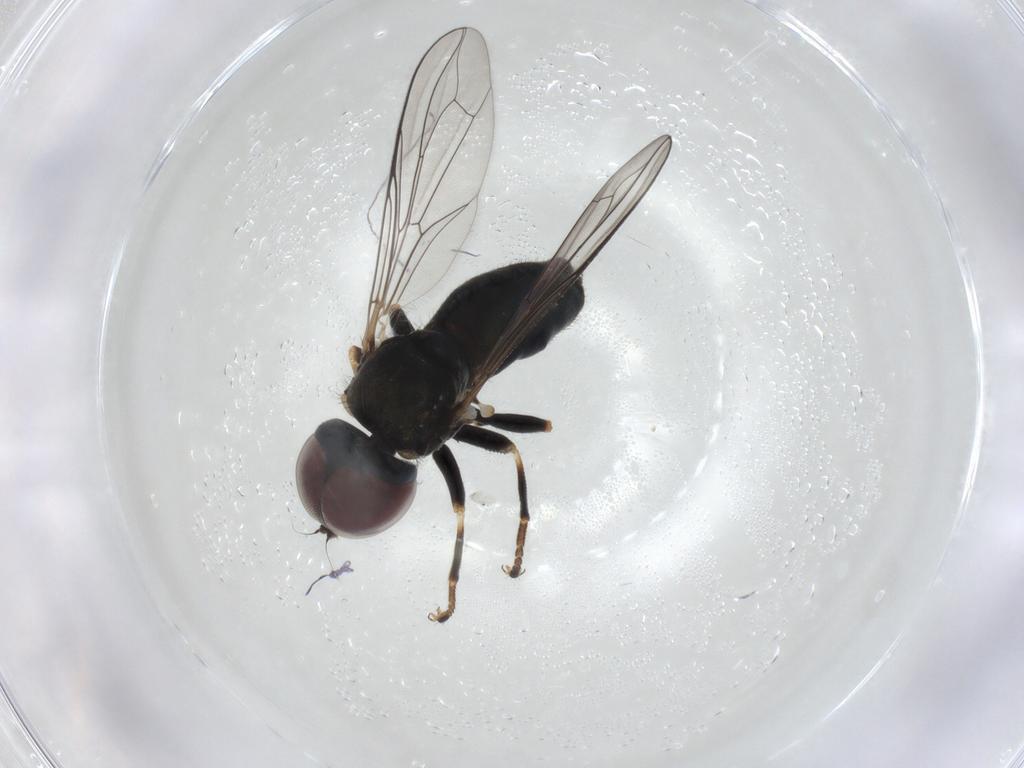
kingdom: Animalia
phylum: Arthropoda
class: Insecta
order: Diptera
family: Pipunculidae
